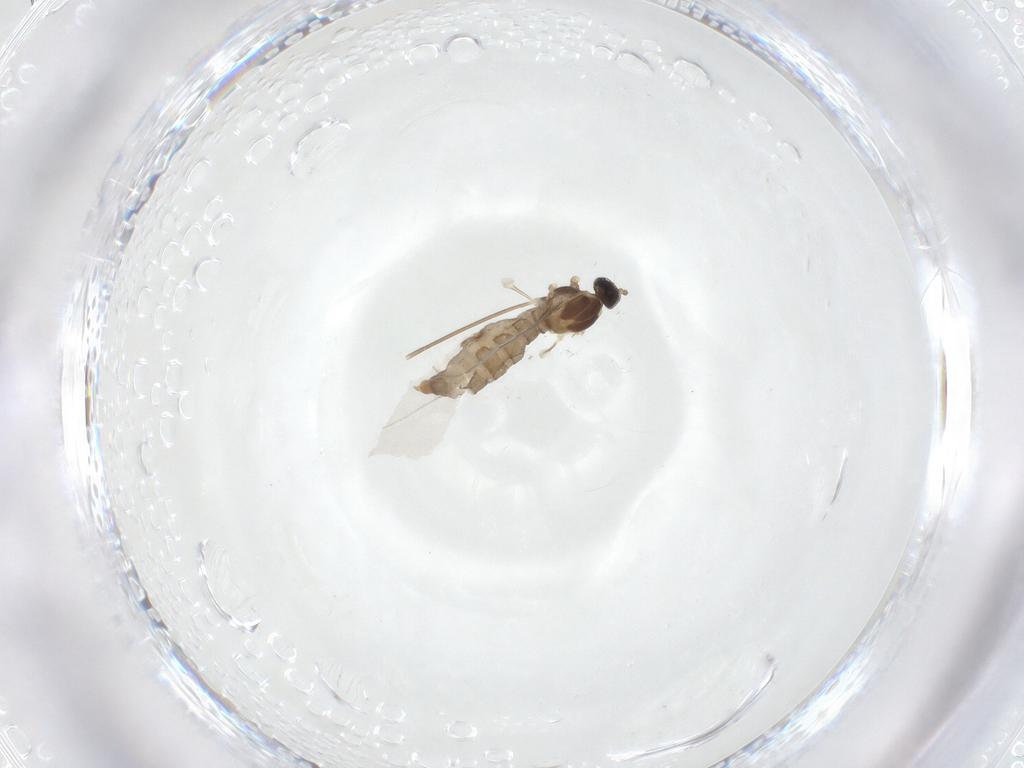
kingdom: Animalia
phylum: Arthropoda
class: Insecta
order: Diptera
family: Cecidomyiidae
